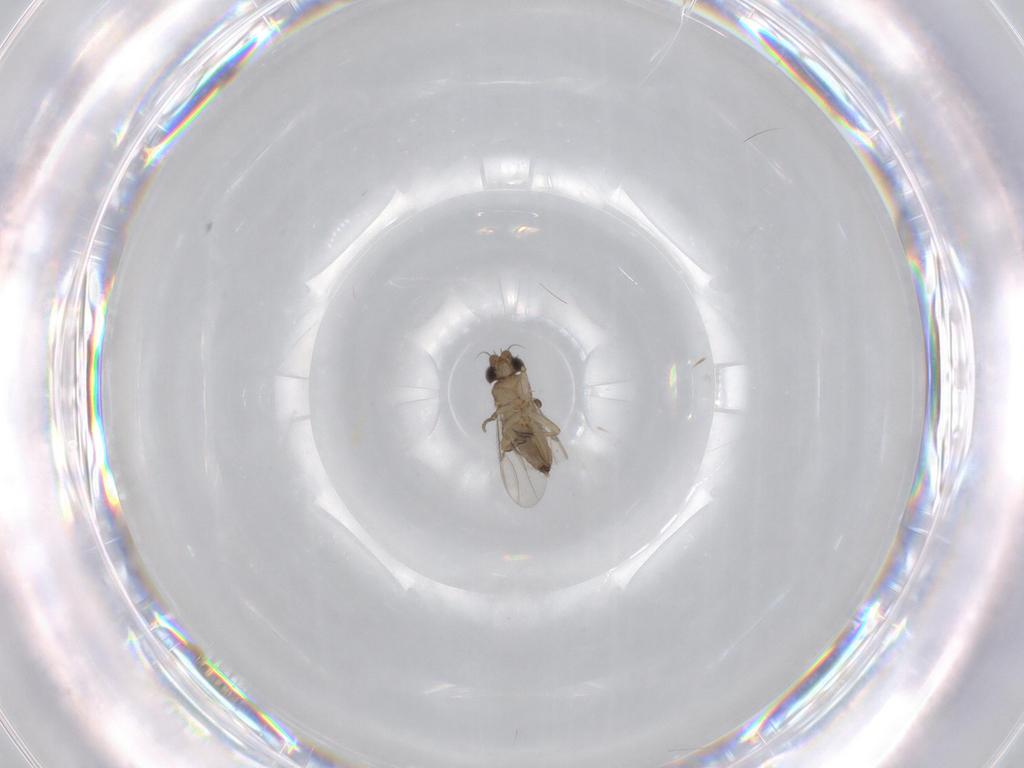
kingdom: Animalia
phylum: Arthropoda
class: Insecta
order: Diptera
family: Phoridae
